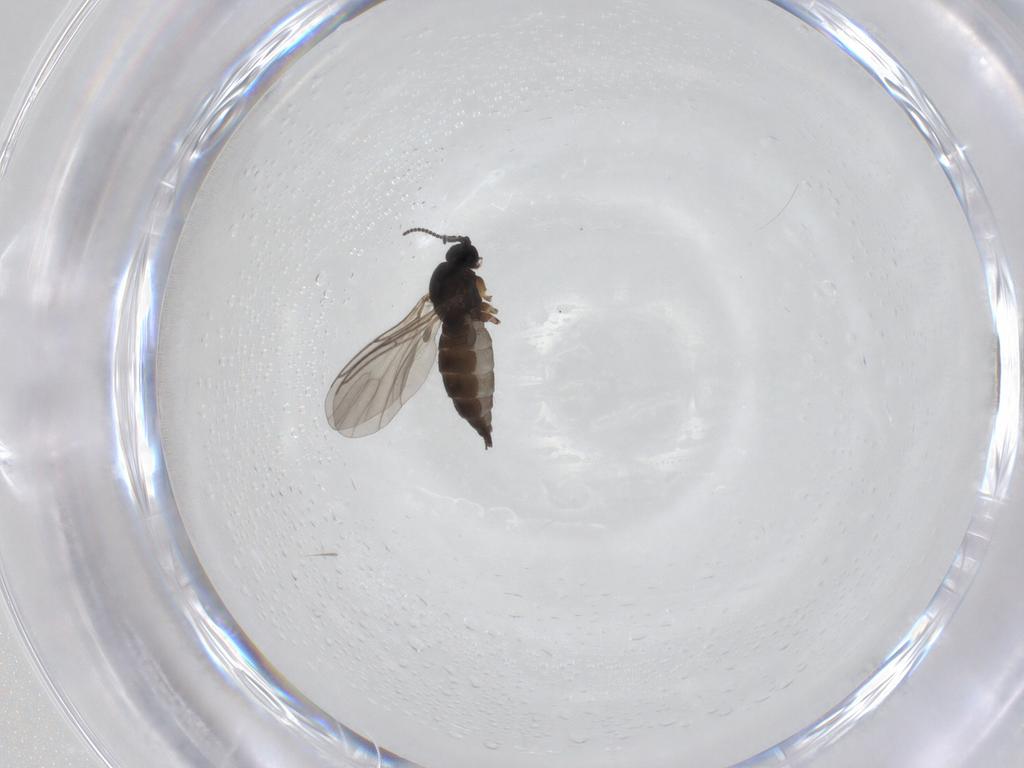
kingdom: Animalia
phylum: Arthropoda
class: Insecta
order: Diptera
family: Sciaridae
